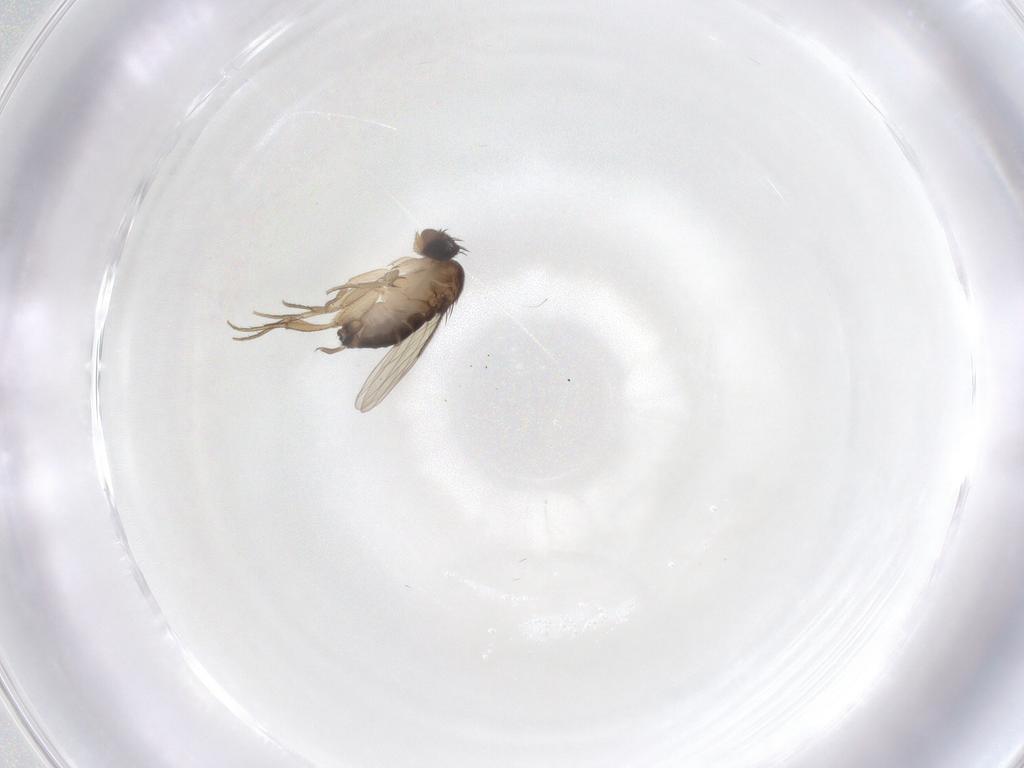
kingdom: Animalia
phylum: Arthropoda
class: Insecta
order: Diptera
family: Phoridae
